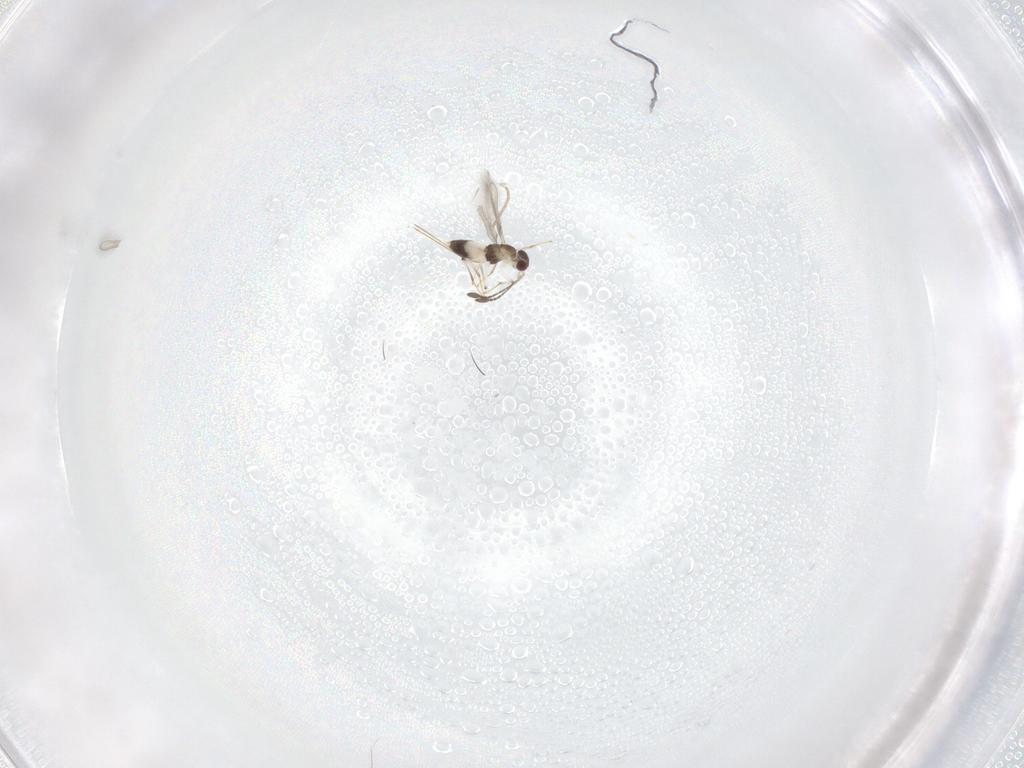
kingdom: Animalia
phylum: Arthropoda
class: Insecta
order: Hymenoptera
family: Mymaridae
